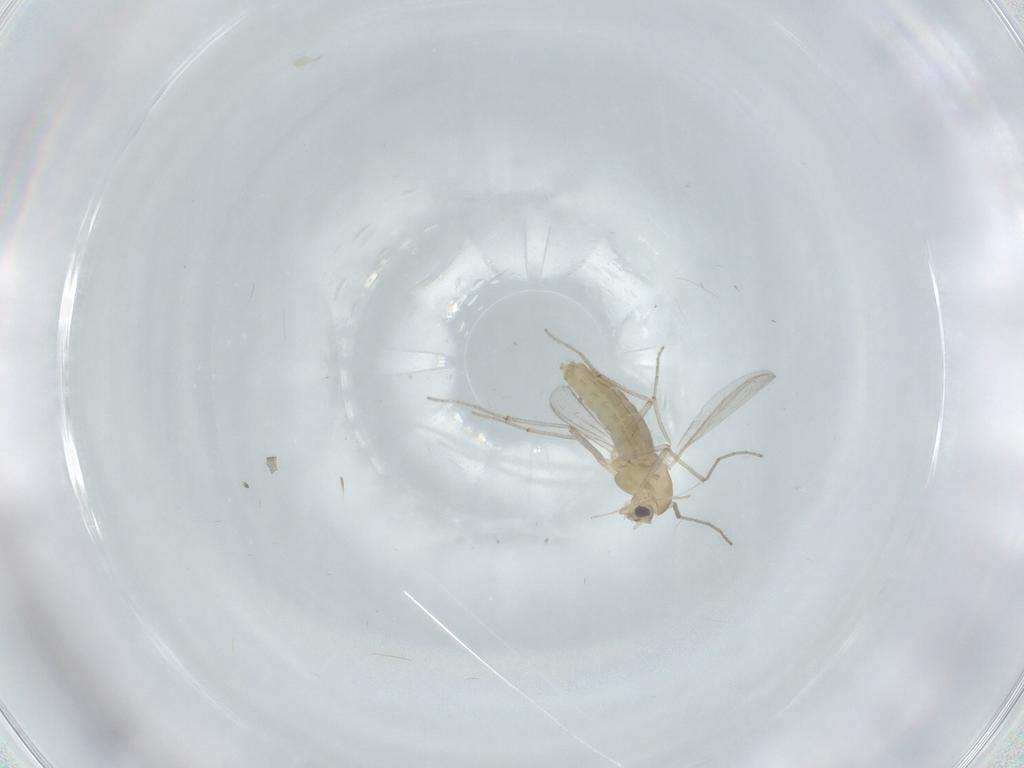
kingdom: Animalia
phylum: Arthropoda
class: Insecta
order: Diptera
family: Chironomidae
